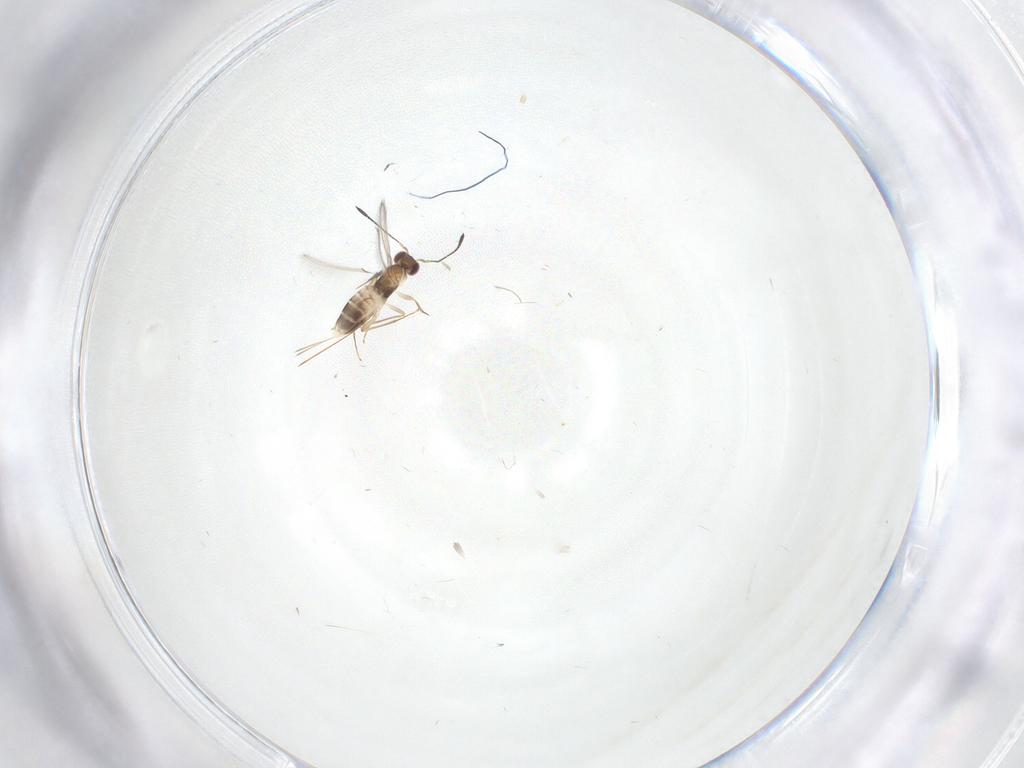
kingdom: Animalia
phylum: Arthropoda
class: Insecta
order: Hymenoptera
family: Mymaridae
